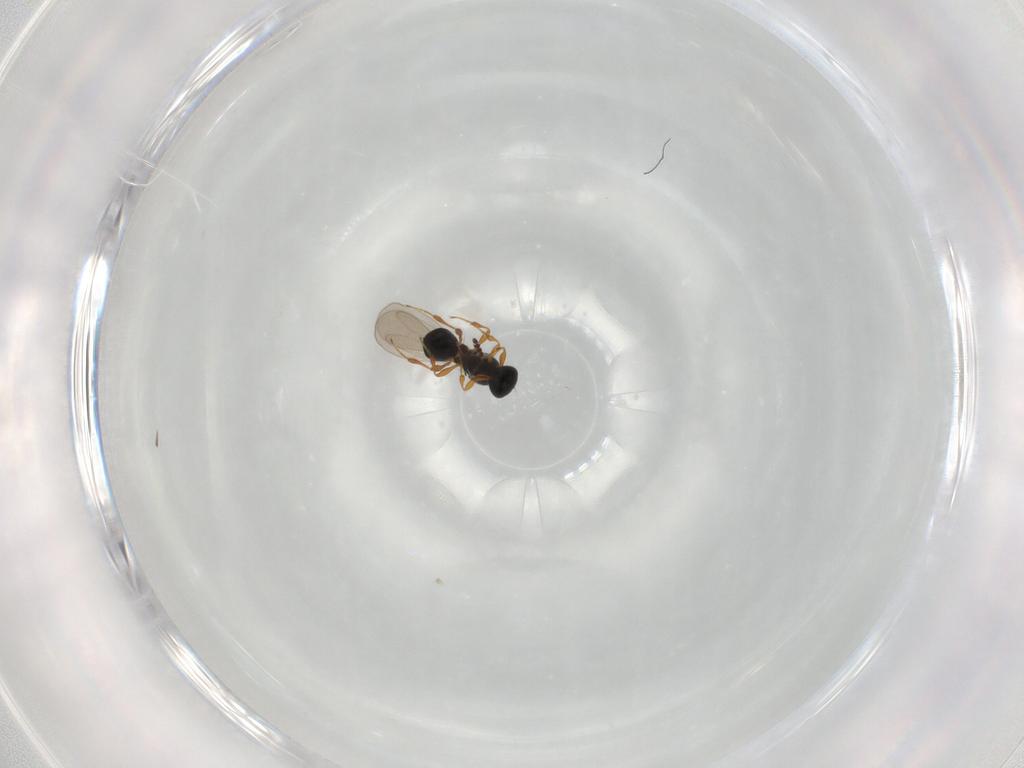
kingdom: Animalia
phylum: Arthropoda
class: Insecta
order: Hymenoptera
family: Platygastridae
